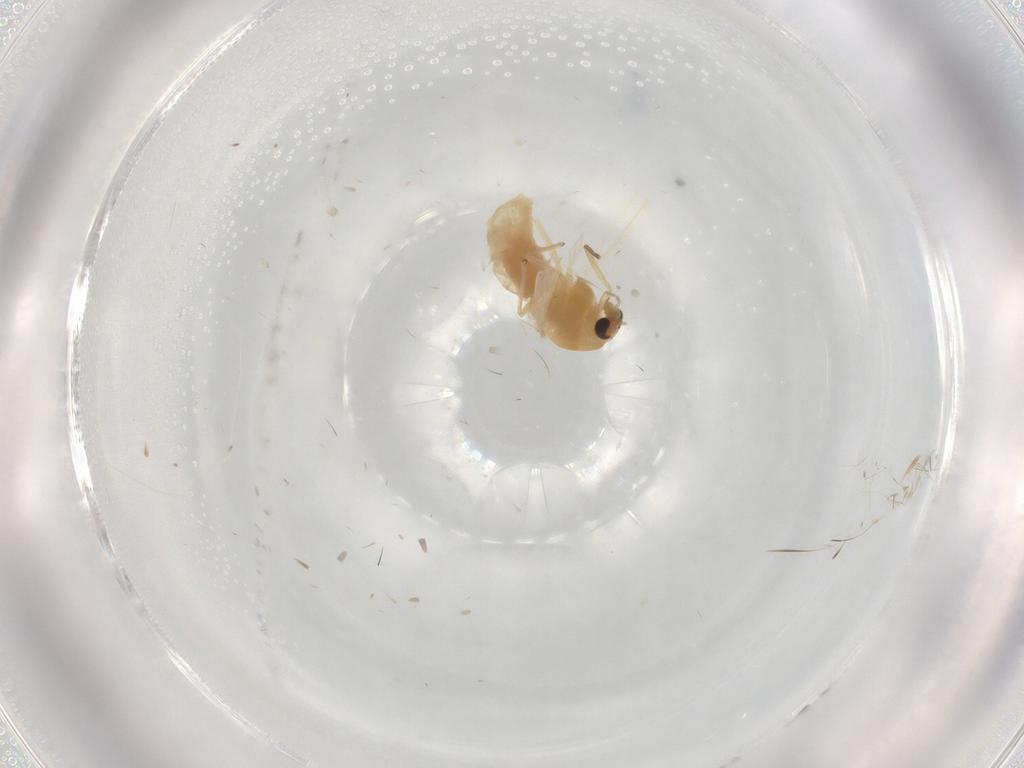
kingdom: Animalia
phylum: Arthropoda
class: Insecta
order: Diptera
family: Chironomidae
